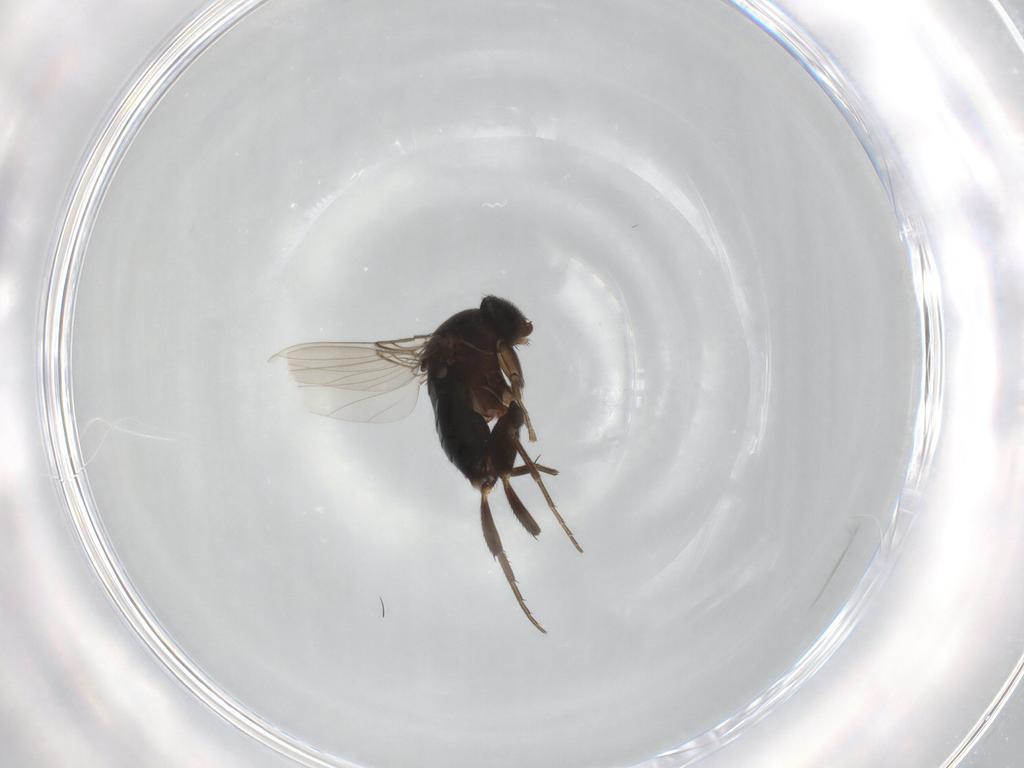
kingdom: Animalia
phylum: Arthropoda
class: Insecta
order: Diptera
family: Phoridae
